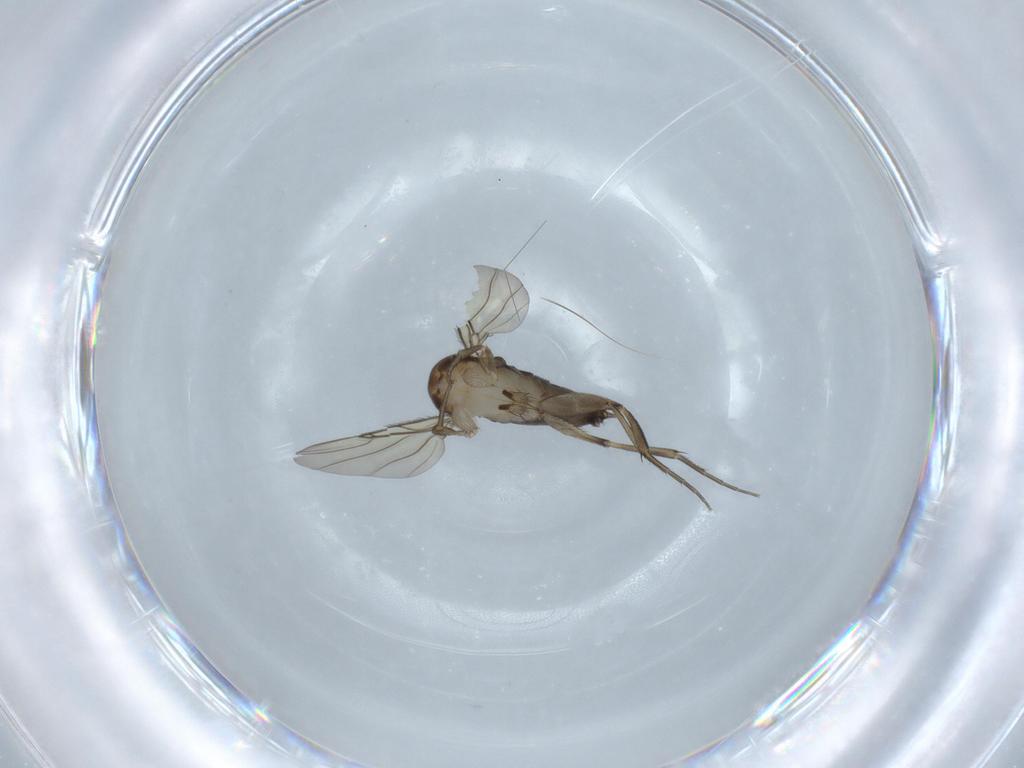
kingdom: Animalia
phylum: Arthropoda
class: Insecta
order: Diptera
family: Phoridae
